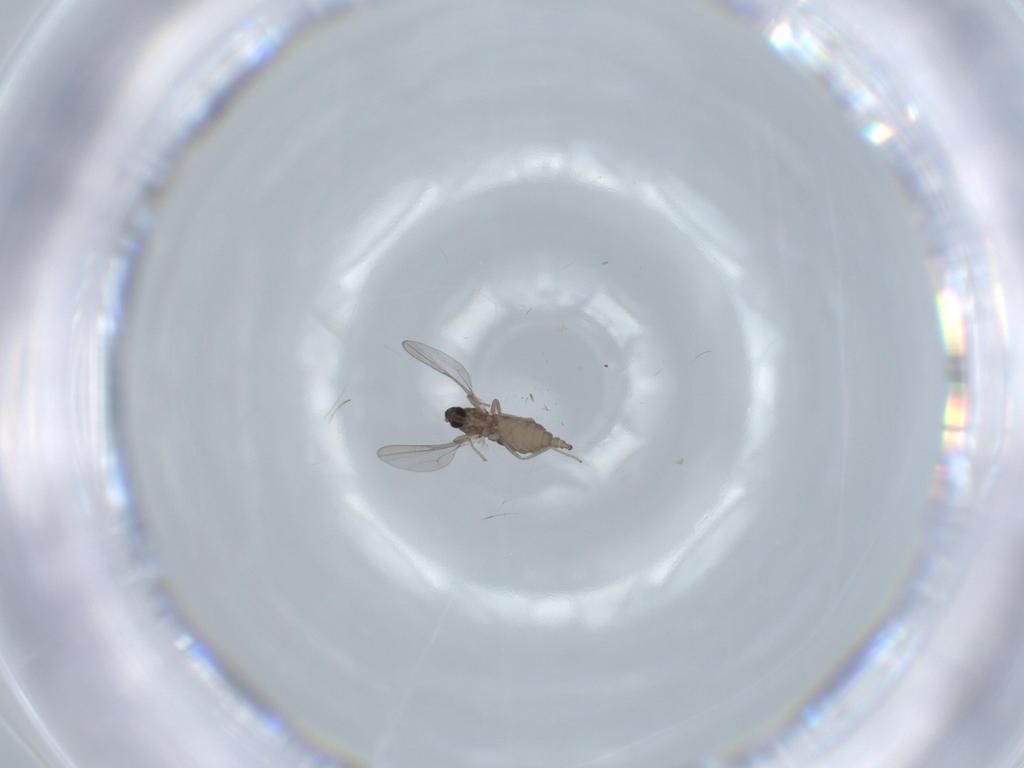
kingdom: Animalia
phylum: Arthropoda
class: Insecta
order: Diptera
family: Cecidomyiidae
